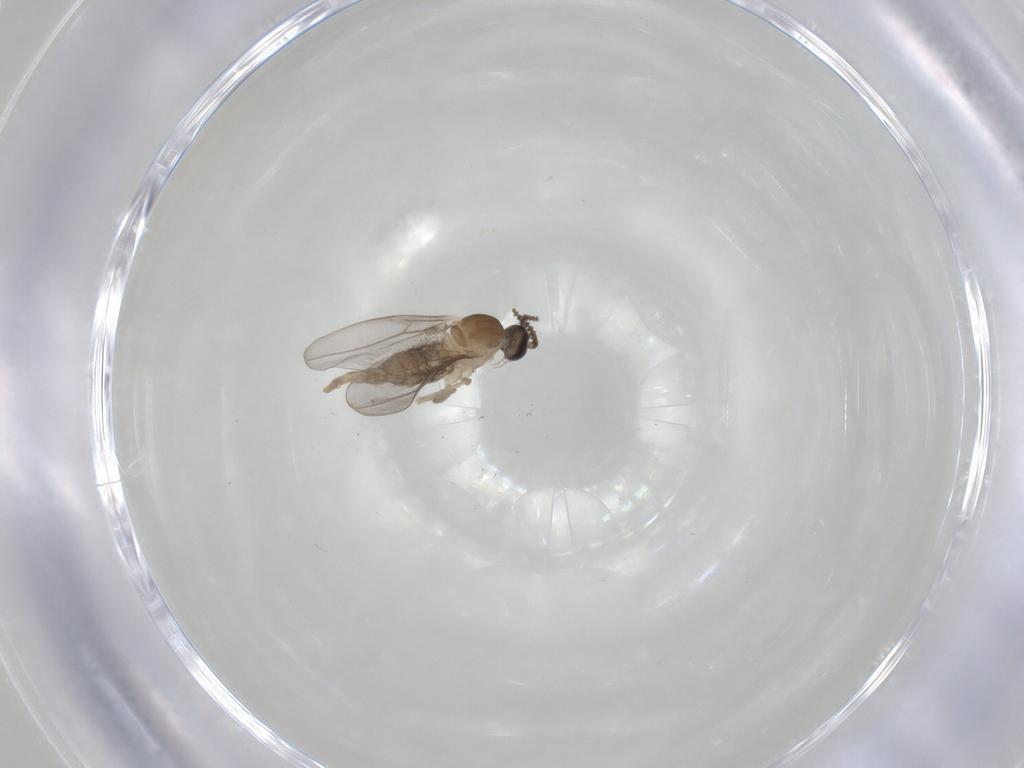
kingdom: Animalia
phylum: Arthropoda
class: Insecta
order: Diptera
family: Cecidomyiidae
